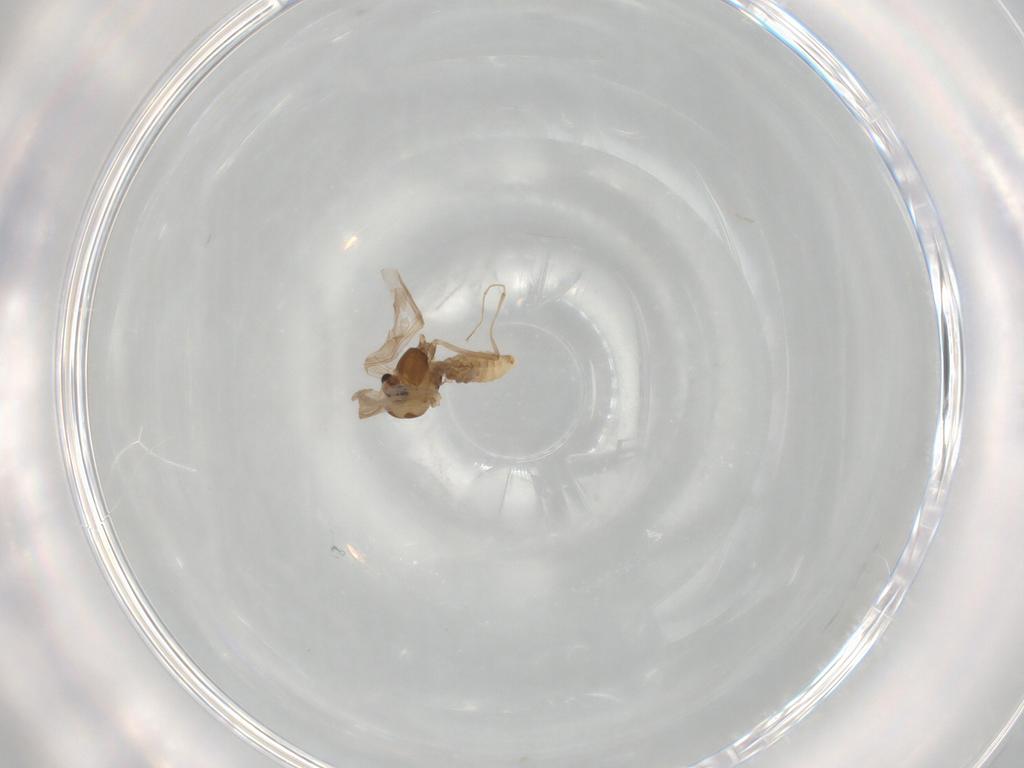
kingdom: Animalia
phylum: Arthropoda
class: Insecta
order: Diptera
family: Chironomidae
